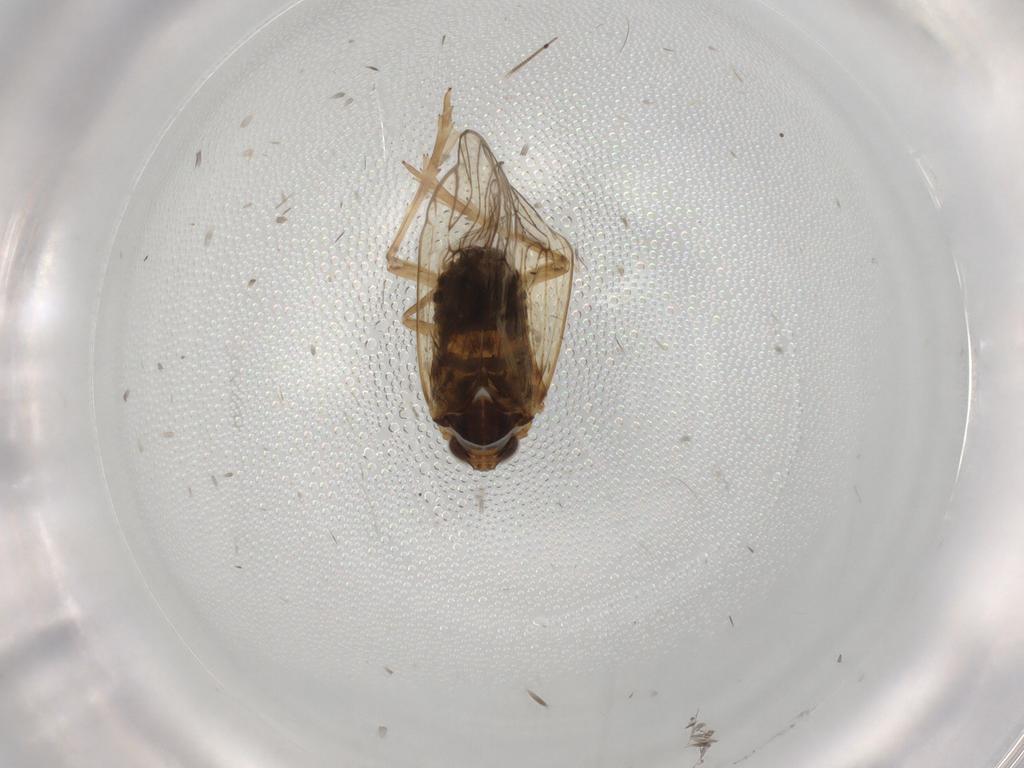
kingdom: Animalia
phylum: Arthropoda
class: Insecta
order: Hemiptera
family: Delphacidae
